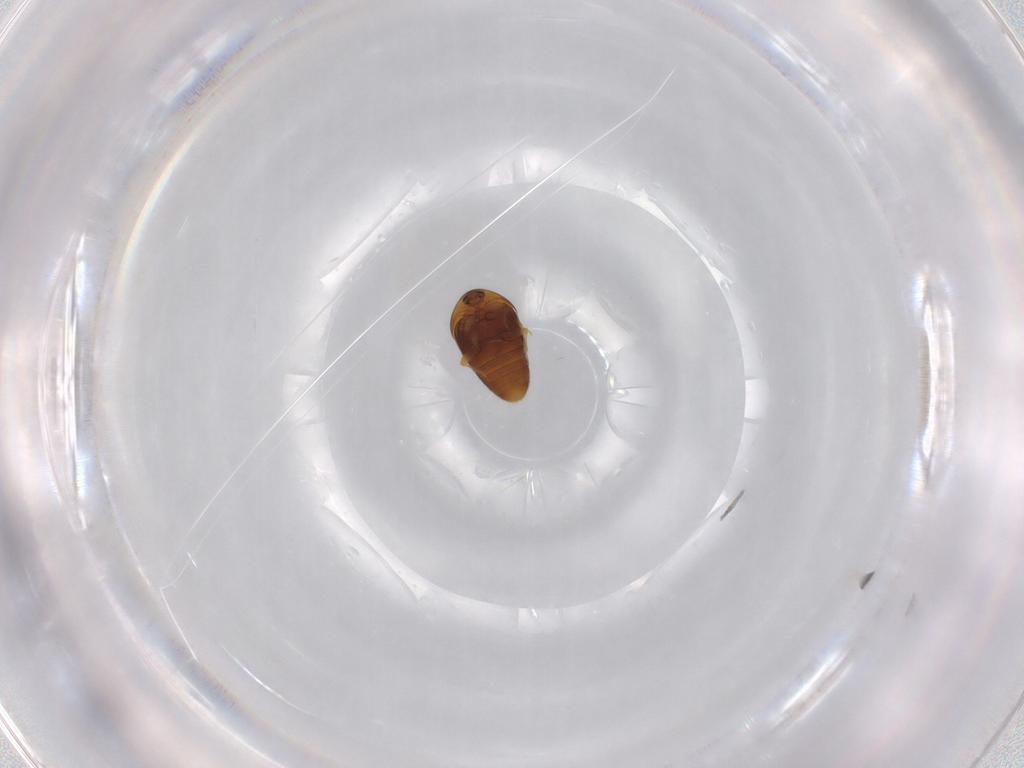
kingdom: Animalia
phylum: Arthropoda
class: Insecta
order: Coleoptera
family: Corylophidae
